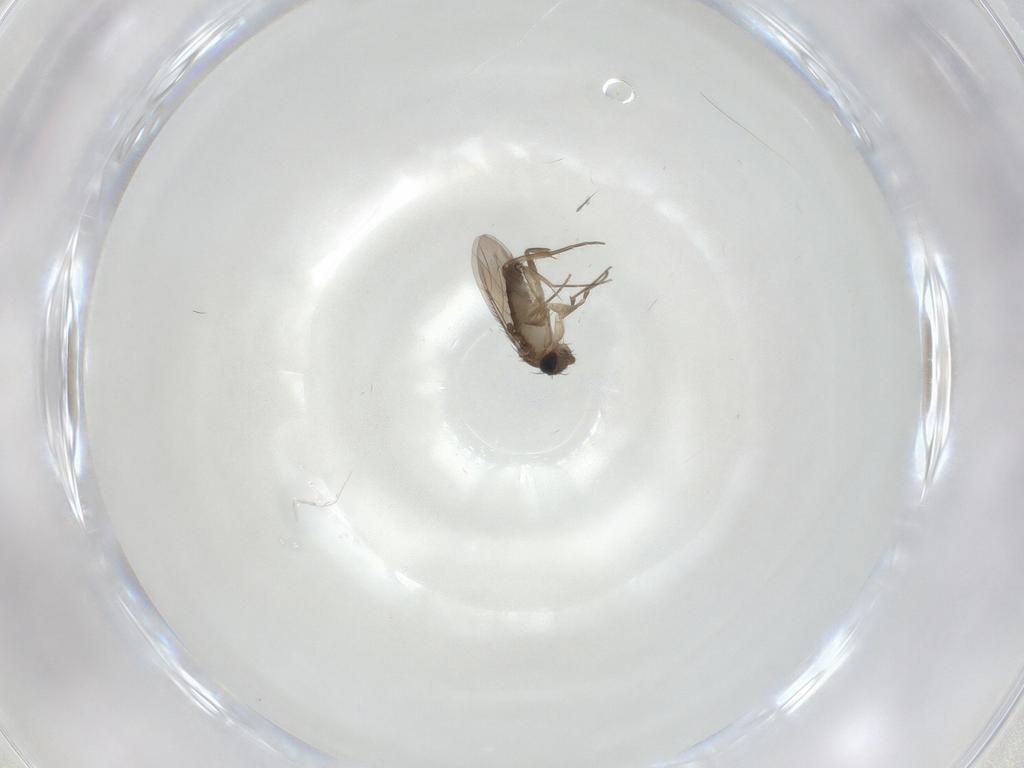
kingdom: Animalia
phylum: Arthropoda
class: Insecta
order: Diptera
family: Phoridae
